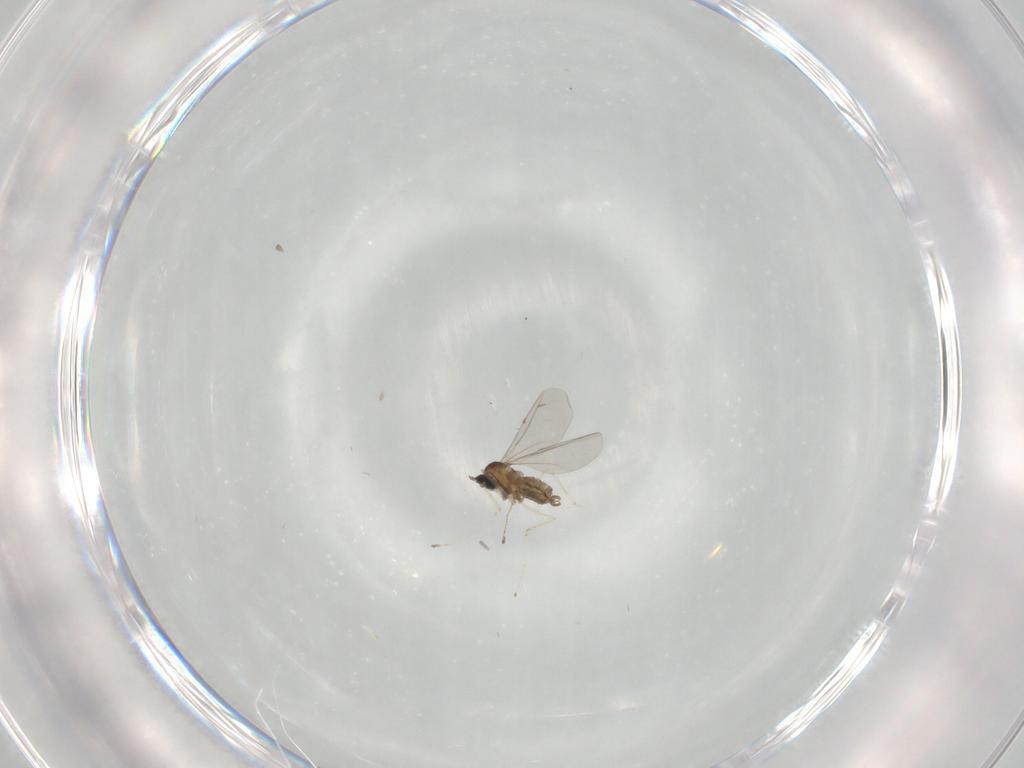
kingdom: Animalia
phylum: Arthropoda
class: Insecta
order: Diptera
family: Cecidomyiidae
